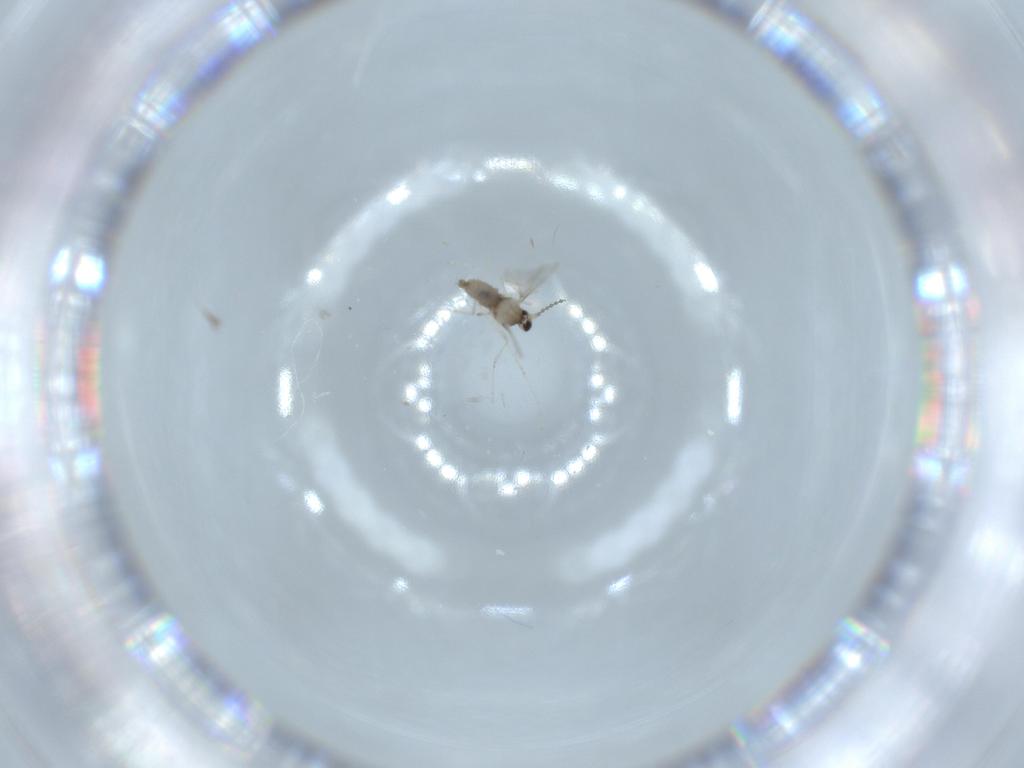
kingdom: Animalia
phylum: Arthropoda
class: Insecta
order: Diptera
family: Cecidomyiidae
